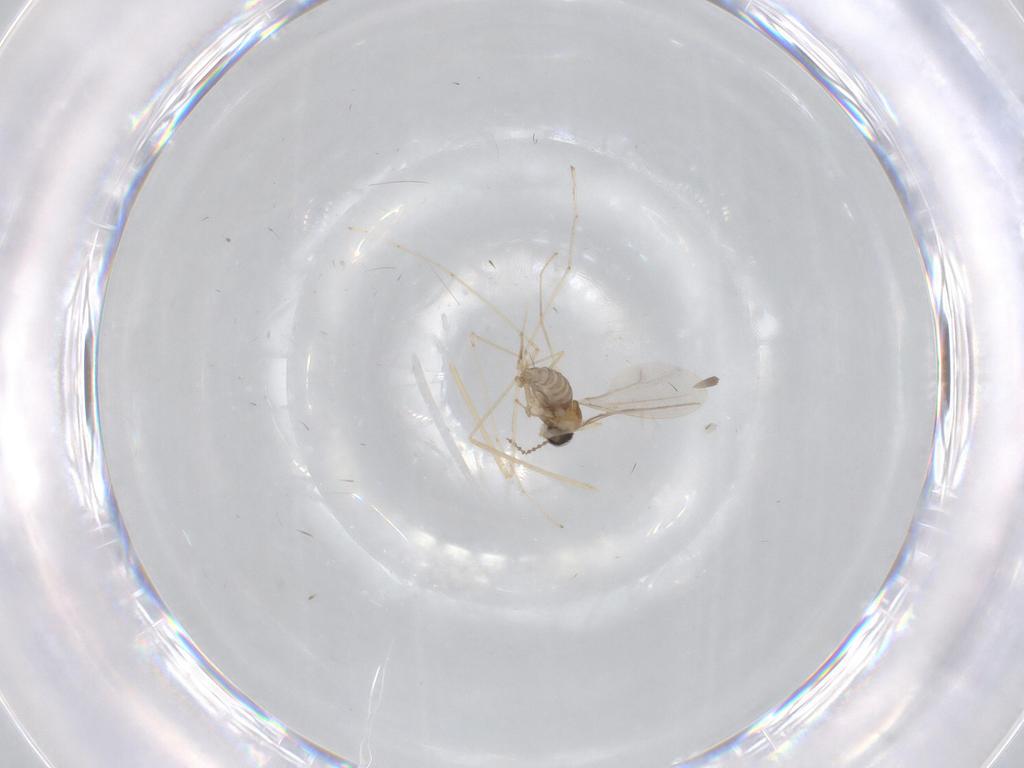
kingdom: Animalia
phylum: Arthropoda
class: Insecta
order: Diptera
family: Cecidomyiidae
